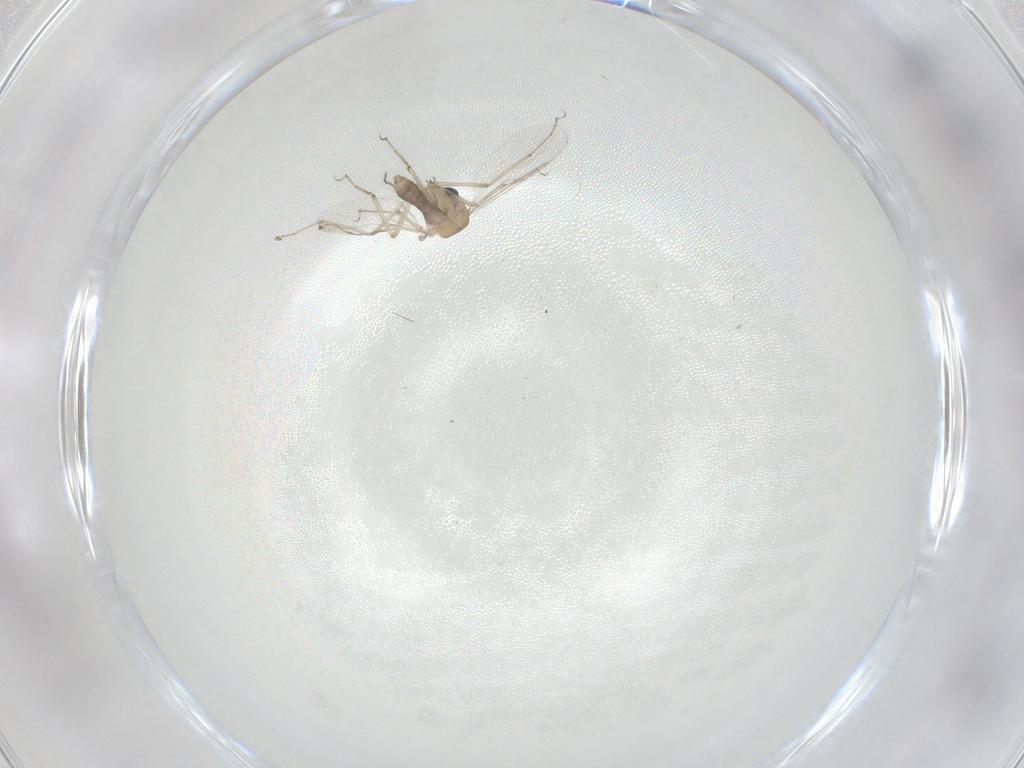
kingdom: Animalia
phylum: Arthropoda
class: Insecta
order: Diptera
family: Ceratopogonidae
